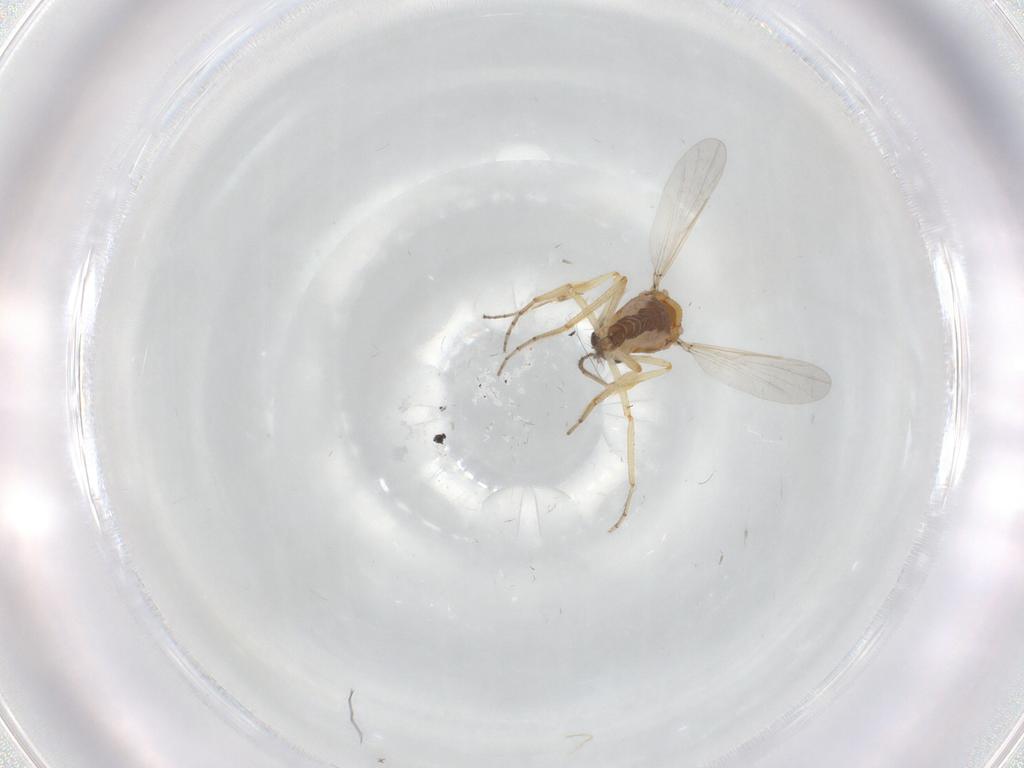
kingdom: Animalia
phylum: Arthropoda
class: Insecta
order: Diptera
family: Ceratopogonidae
